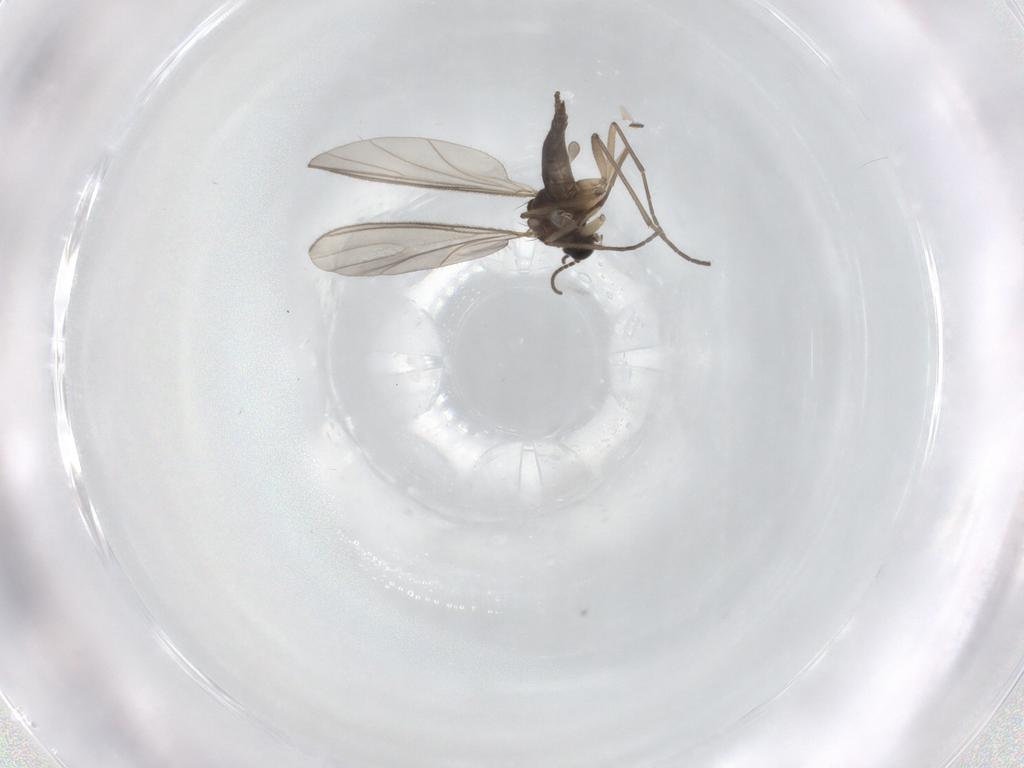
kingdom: Animalia
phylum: Arthropoda
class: Insecta
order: Diptera
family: Sciaridae
